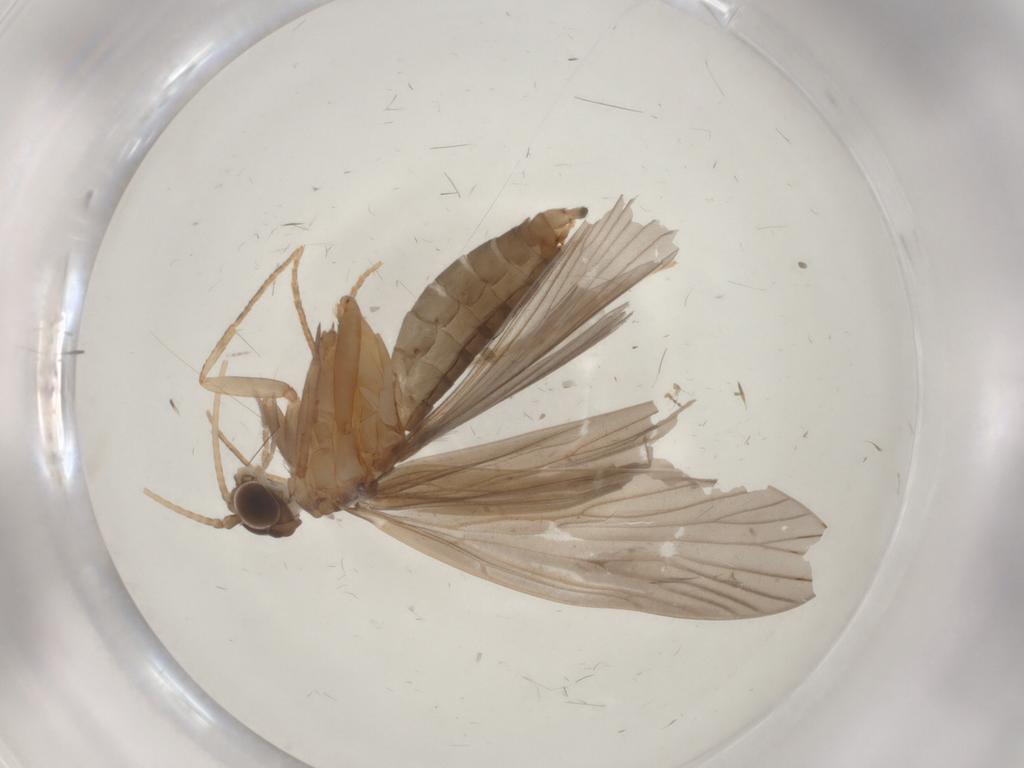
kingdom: Animalia
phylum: Arthropoda
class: Insecta
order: Trichoptera
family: Philopotamidae
